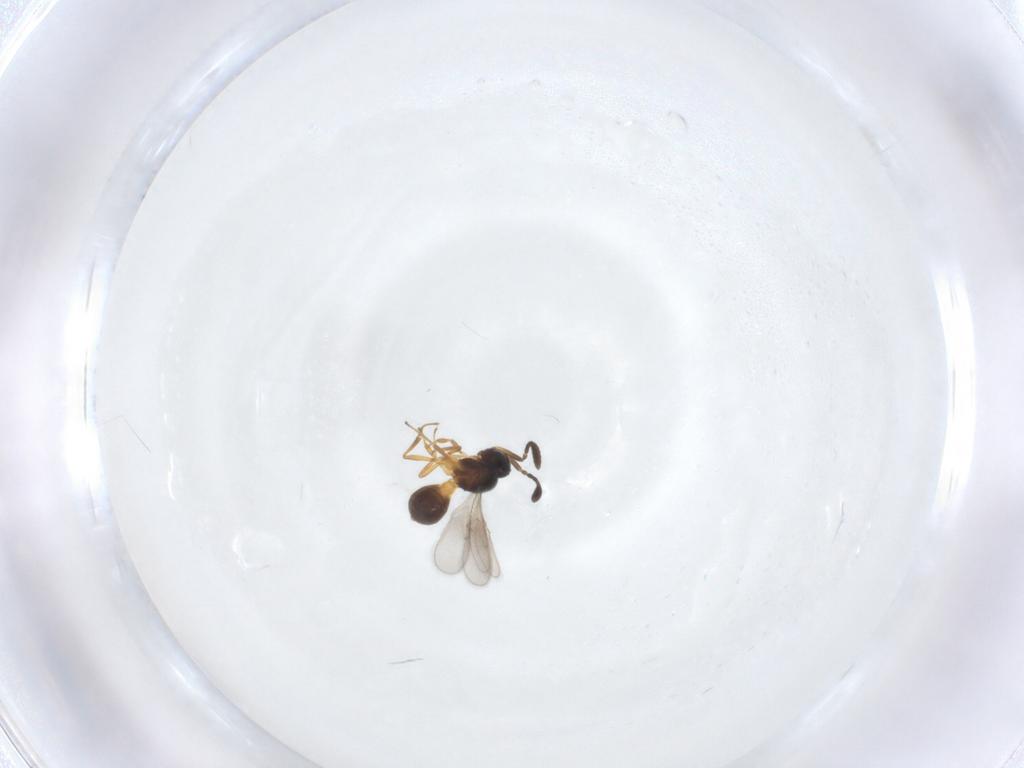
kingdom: Animalia
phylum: Arthropoda
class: Insecta
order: Hymenoptera
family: Scelionidae
